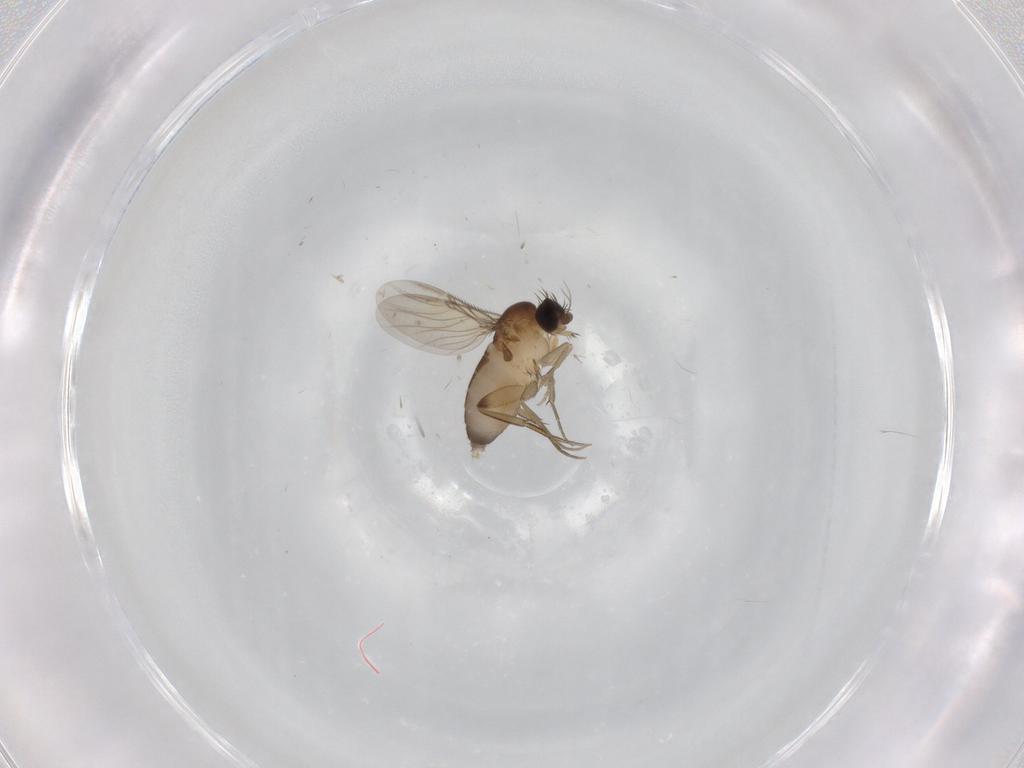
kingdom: Animalia
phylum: Arthropoda
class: Insecta
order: Diptera
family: Phoridae
